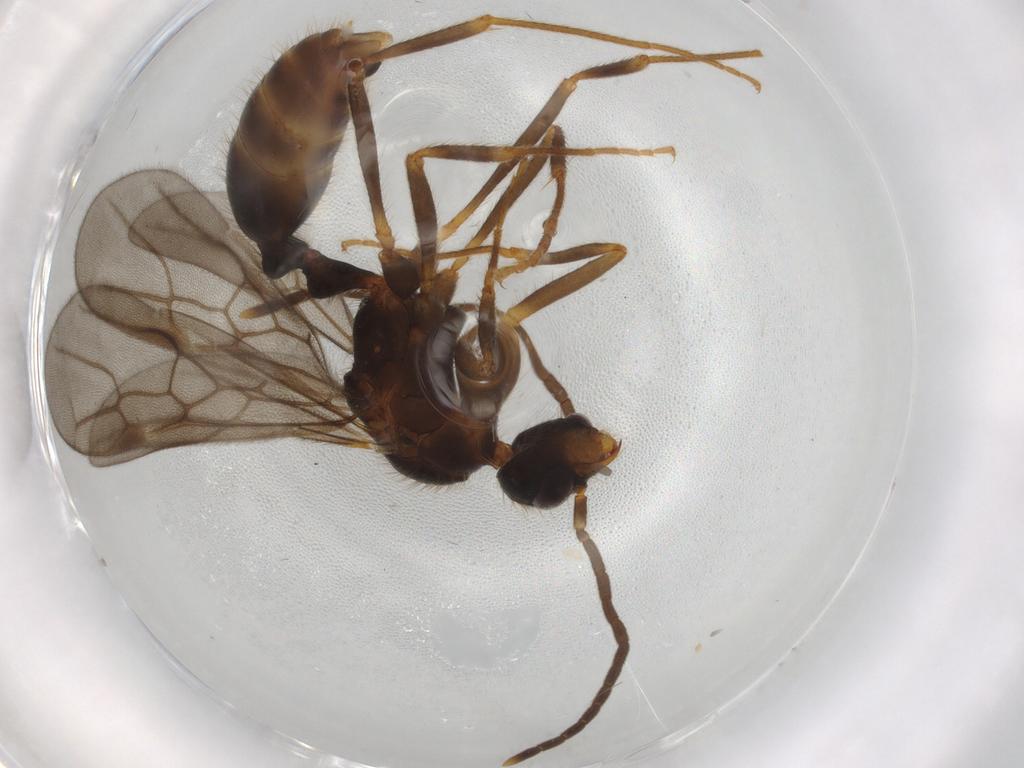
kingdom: Animalia
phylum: Arthropoda
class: Insecta
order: Hymenoptera
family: Formicidae
